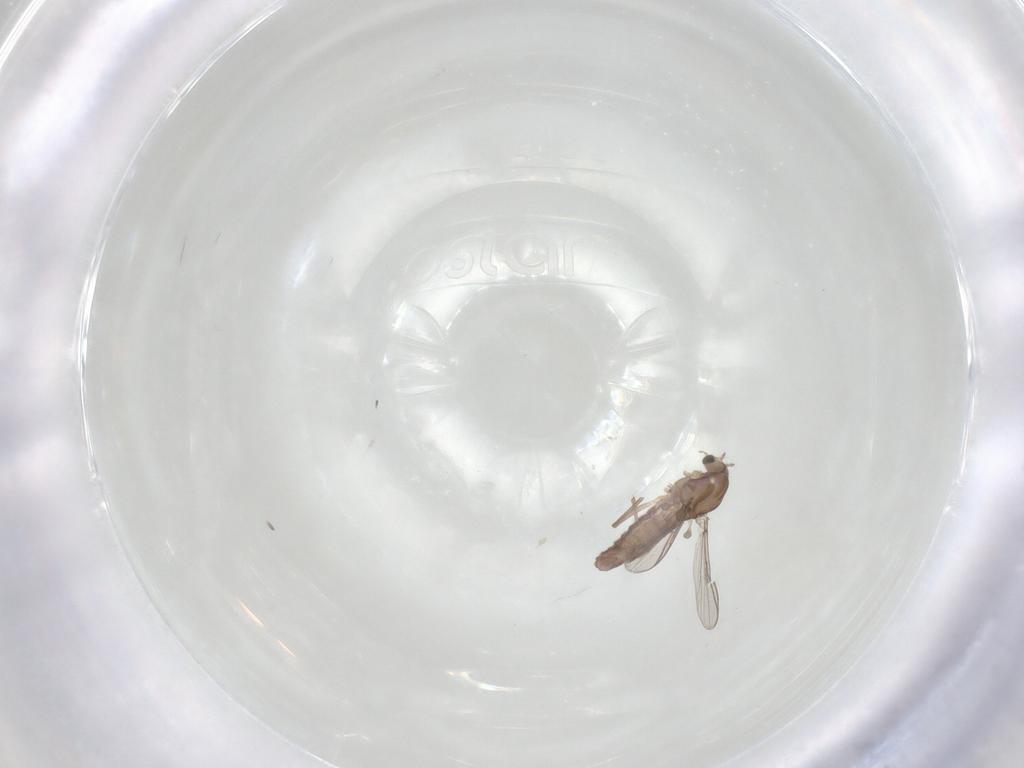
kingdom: Animalia
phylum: Arthropoda
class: Insecta
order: Diptera
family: Chironomidae
